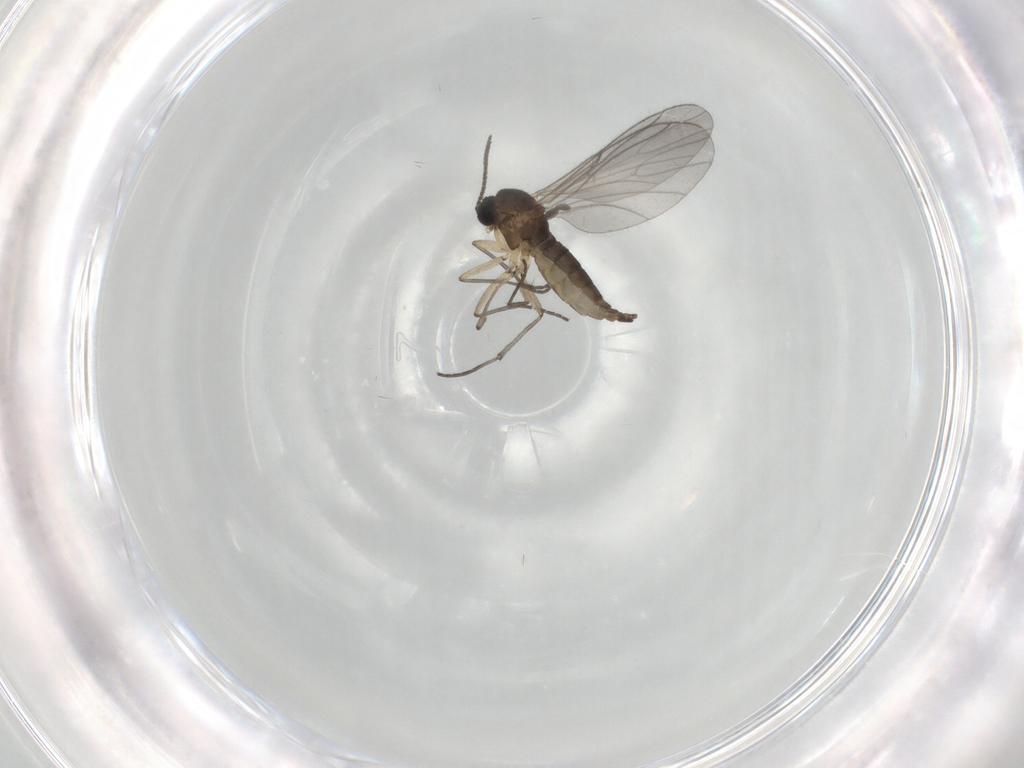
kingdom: Animalia
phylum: Arthropoda
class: Insecta
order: Diptera
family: Sciaridae
